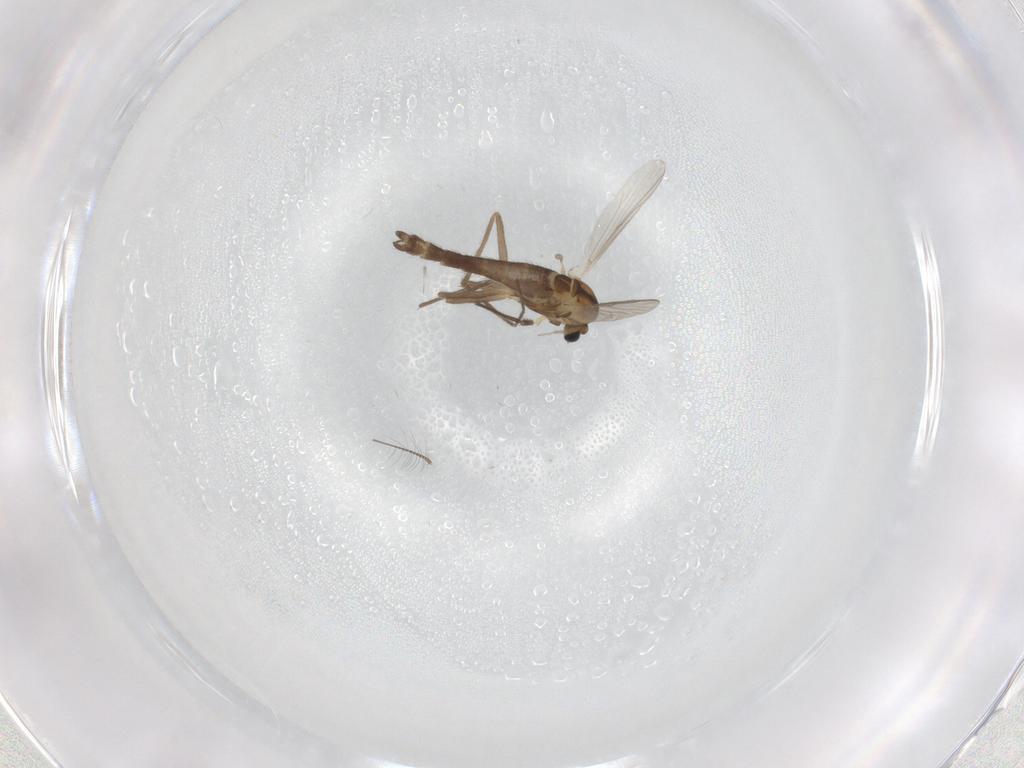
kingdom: Animalia
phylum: Arthropoda
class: Insecta
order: Diptera
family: Chironomidae
